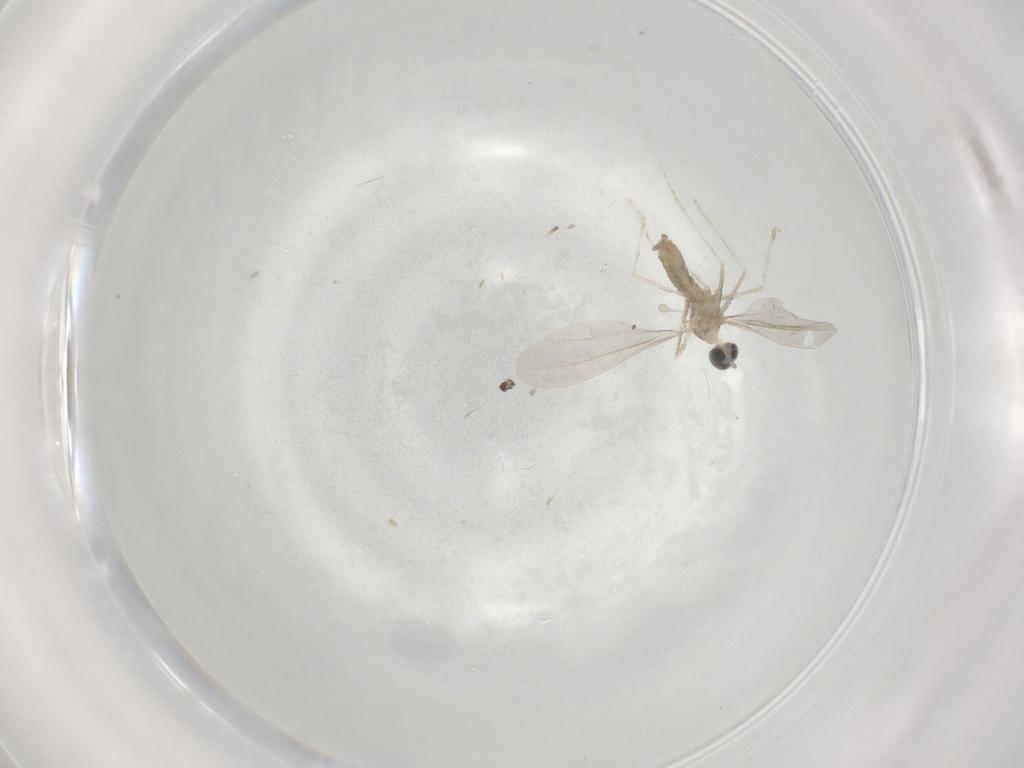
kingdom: Animalia
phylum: Arthropoda
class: Insecta
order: Diptera
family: Cecidomyiidae
